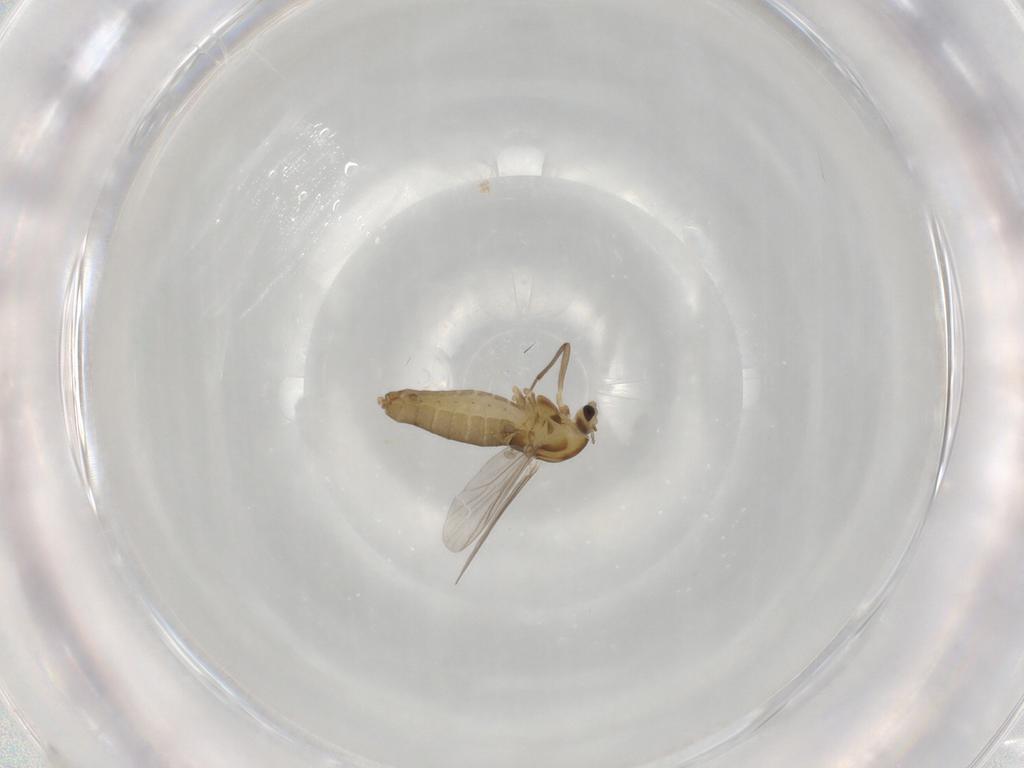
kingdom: Animalia
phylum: Arthropoda
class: Insecta
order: Diptera
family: Chironomidae
